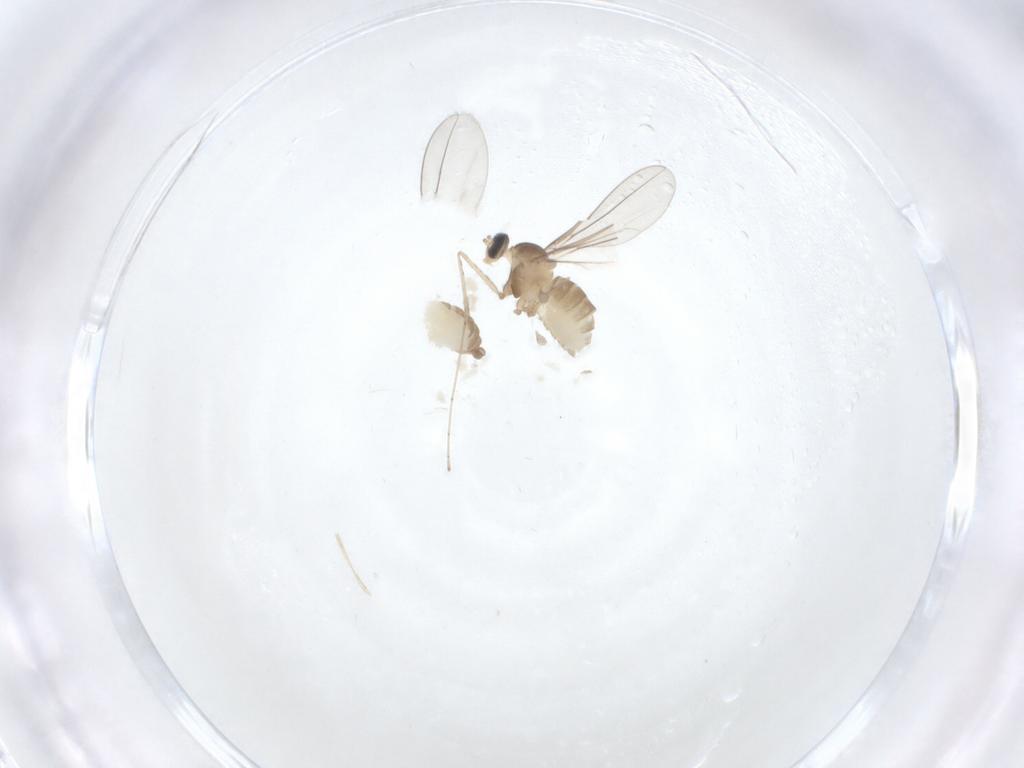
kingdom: Animalia
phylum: Arthropoda
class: Insecta
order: Diptera
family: Cecidomyiidae
